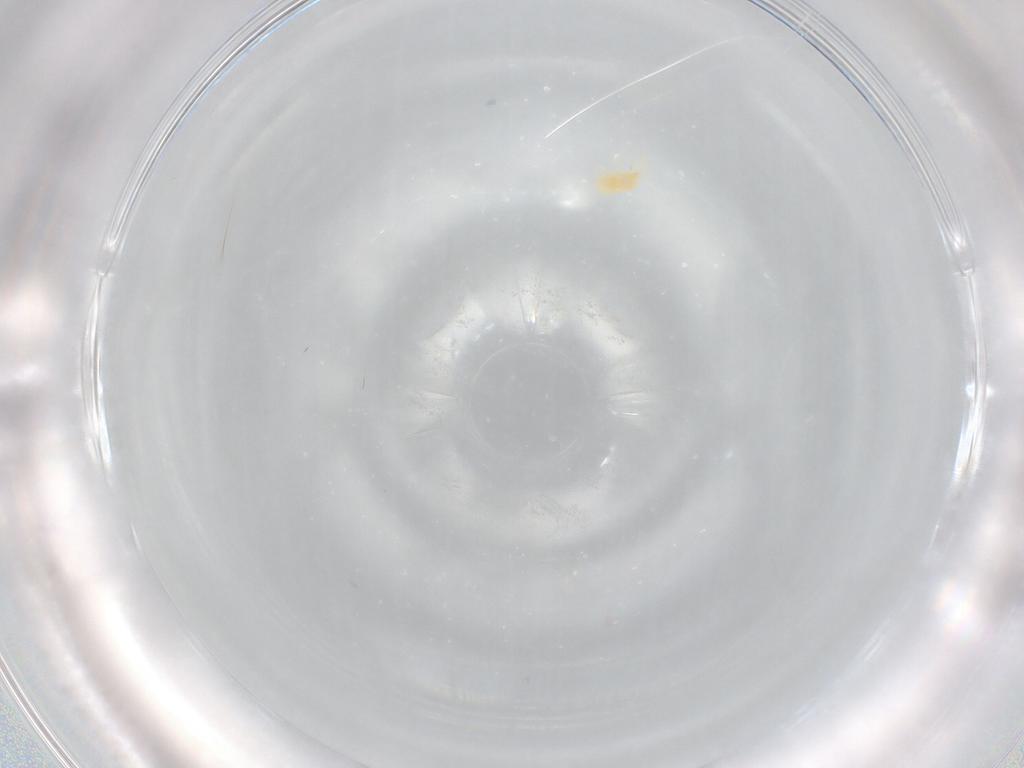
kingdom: Animalia
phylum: Arthropoda
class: Arachnida
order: Trombidiformes
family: Tetranychidae
